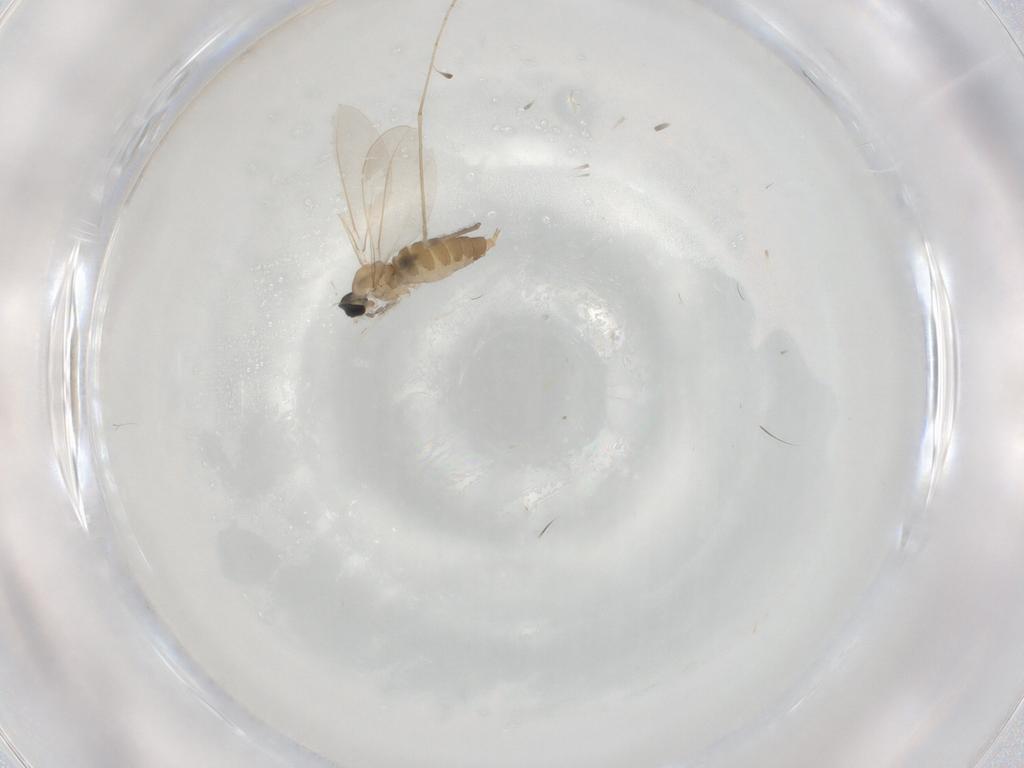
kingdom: Animalia
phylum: Arthropoda
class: Insecta
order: Diptera
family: Cecidomyiidae
